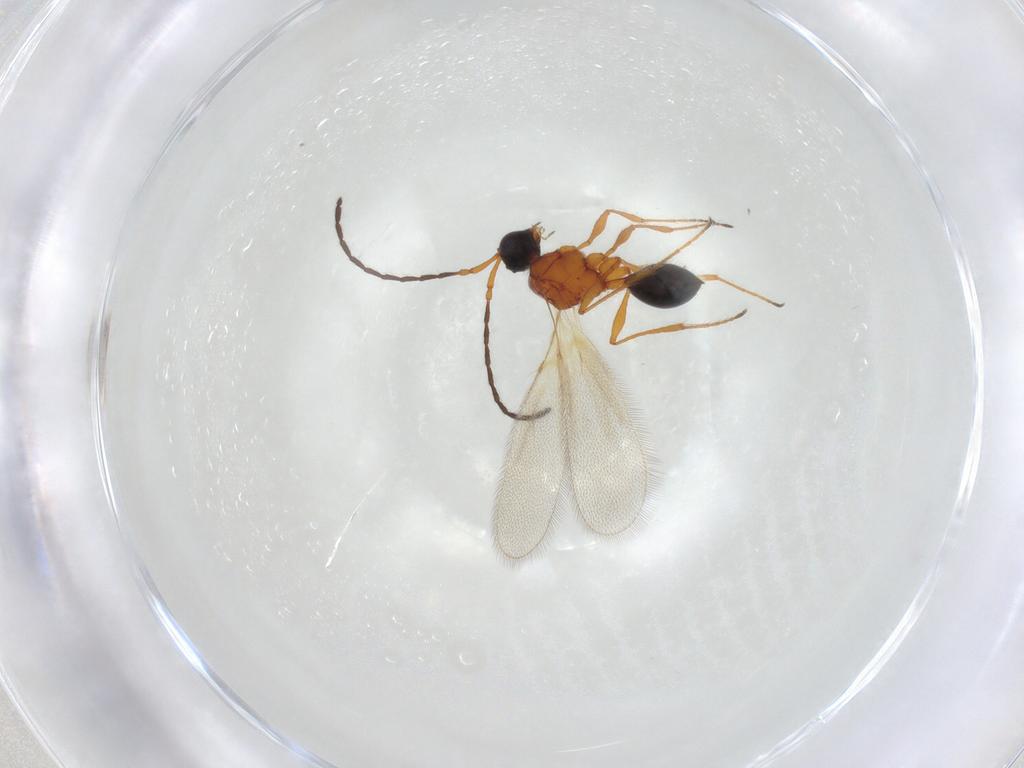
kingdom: Animalia
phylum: Arthropoda
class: Insecta
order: Hymenoptera
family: Diapriidae
